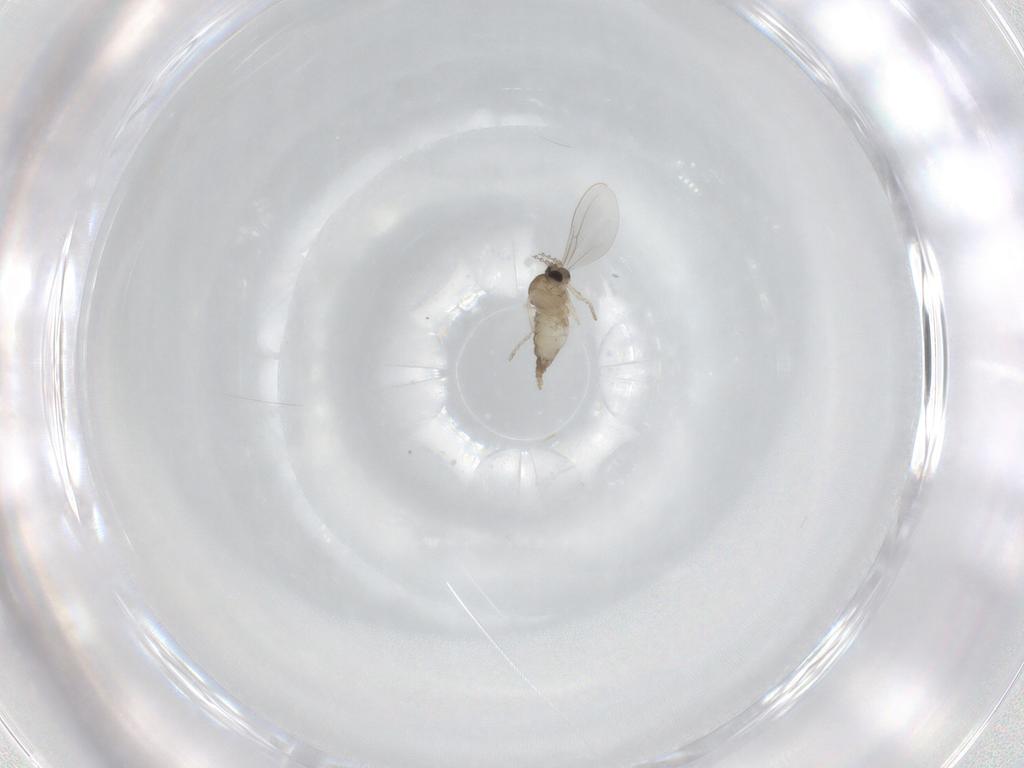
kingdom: Animalia
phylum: Arthropoda
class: Insecta
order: Diptera
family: Cecidomyiidae
